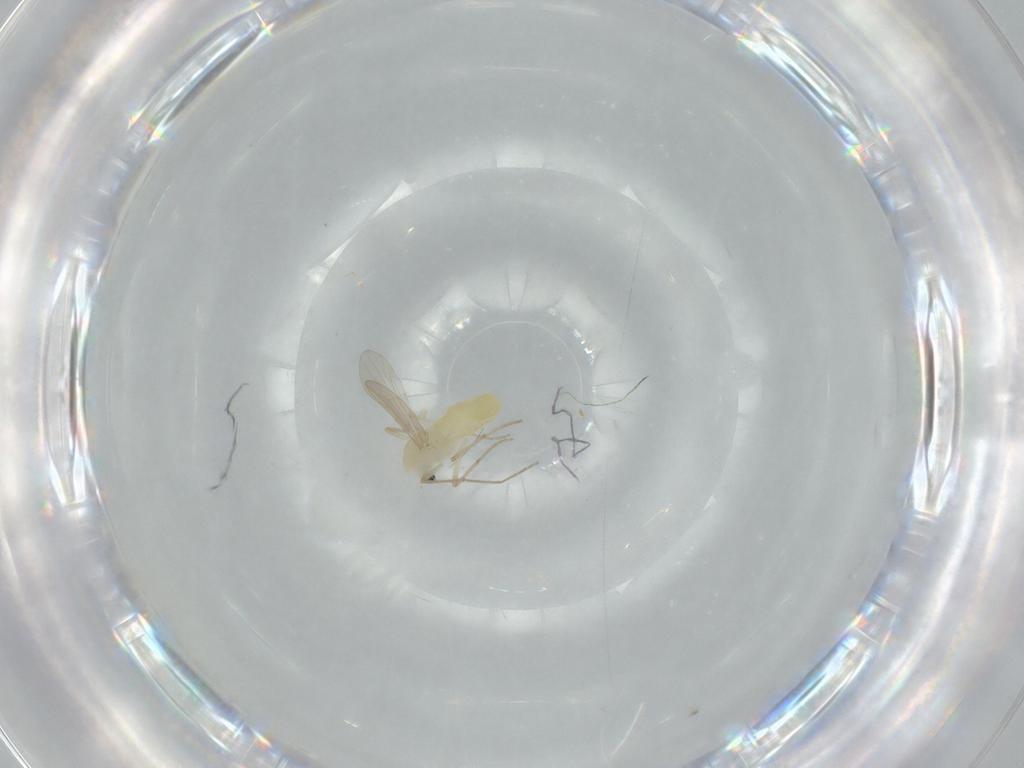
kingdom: Animalia
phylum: Arthropoda
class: Insecta
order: Diptera
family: Chironomidae
